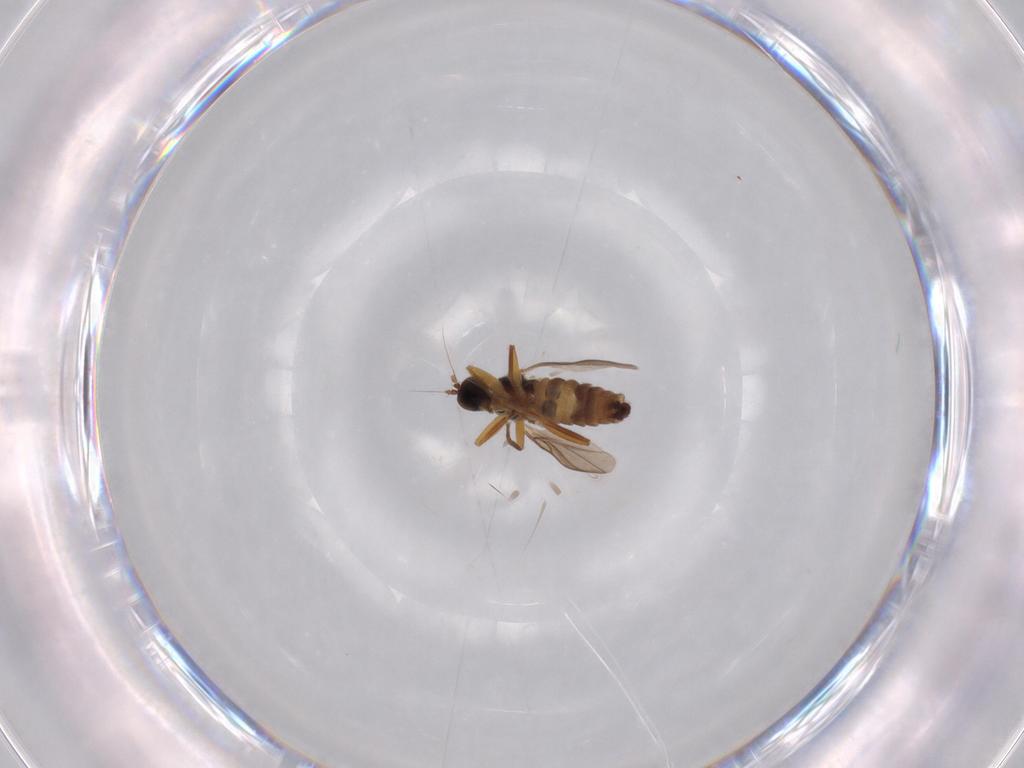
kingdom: Animalia
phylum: Arthropoda
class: Insecta
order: Diptera
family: Hybotidae
